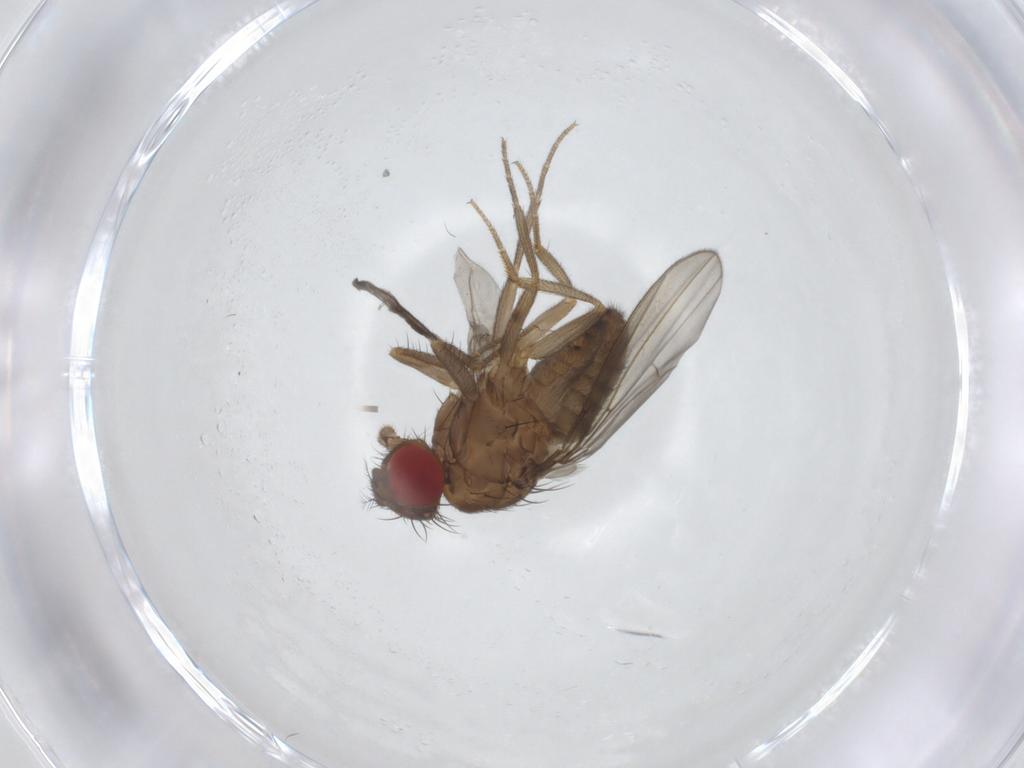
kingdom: Animalia
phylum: Arthropoda
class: Insecta
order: Diptera
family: Drosophilidae
